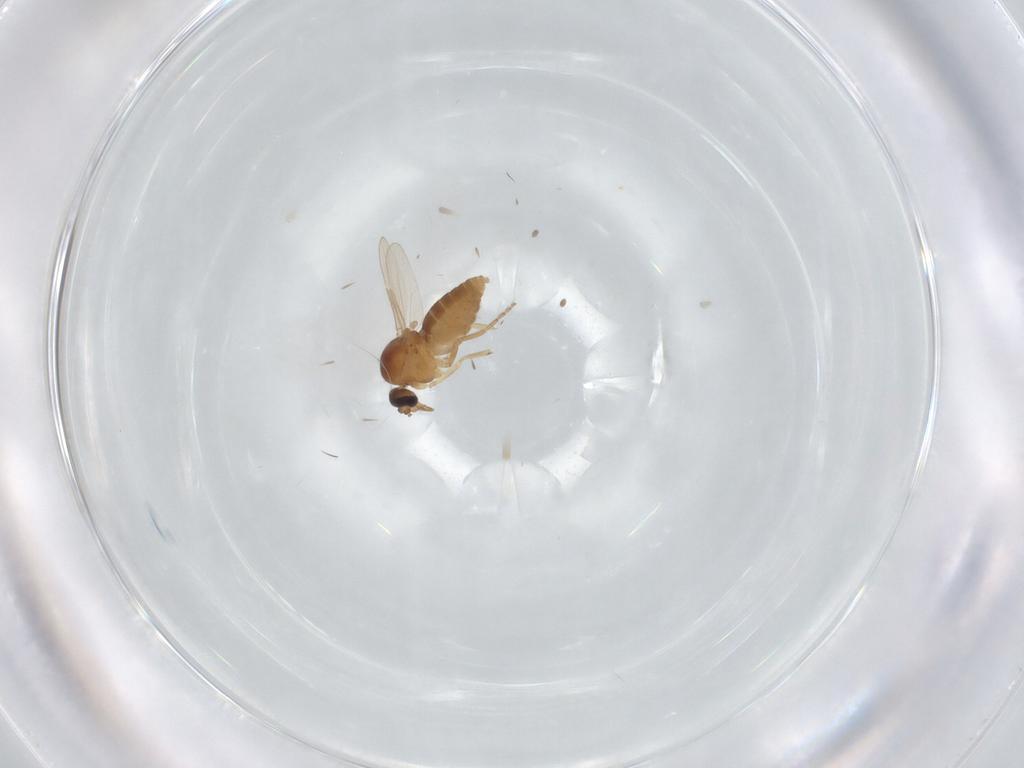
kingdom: Animalia
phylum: Arthropoda
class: Insecta
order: Diptera
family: Ceratopogonidae
